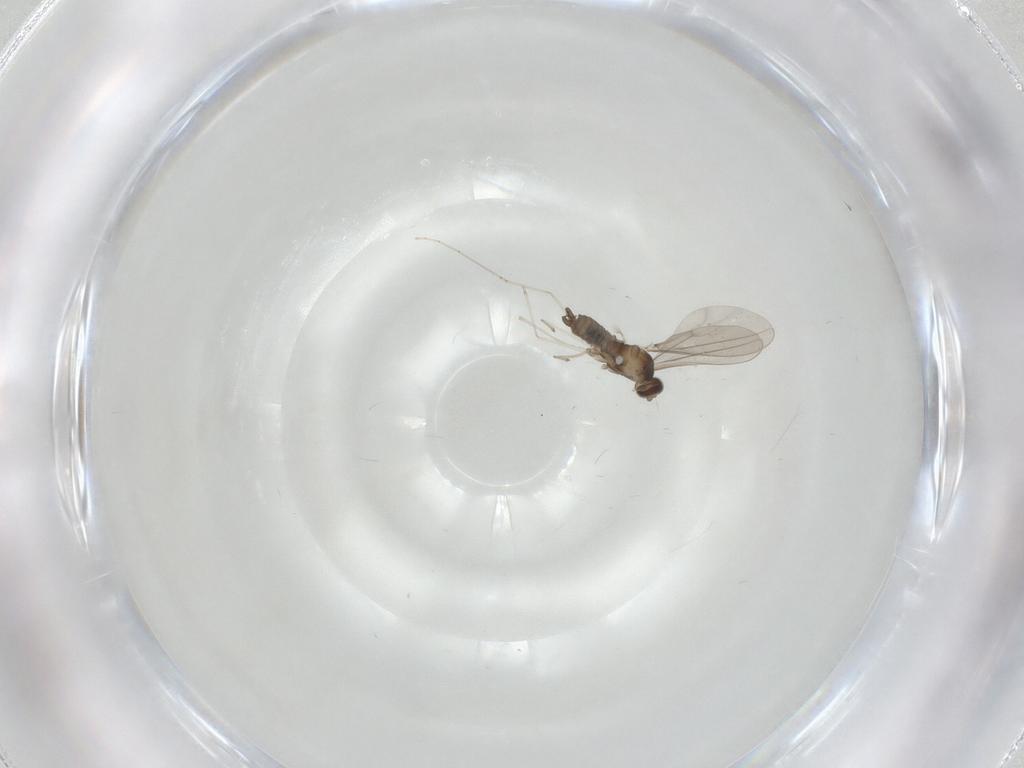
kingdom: Animalia
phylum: Arthropoda
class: Insecta
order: Diptera
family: Cecidomyiidae
